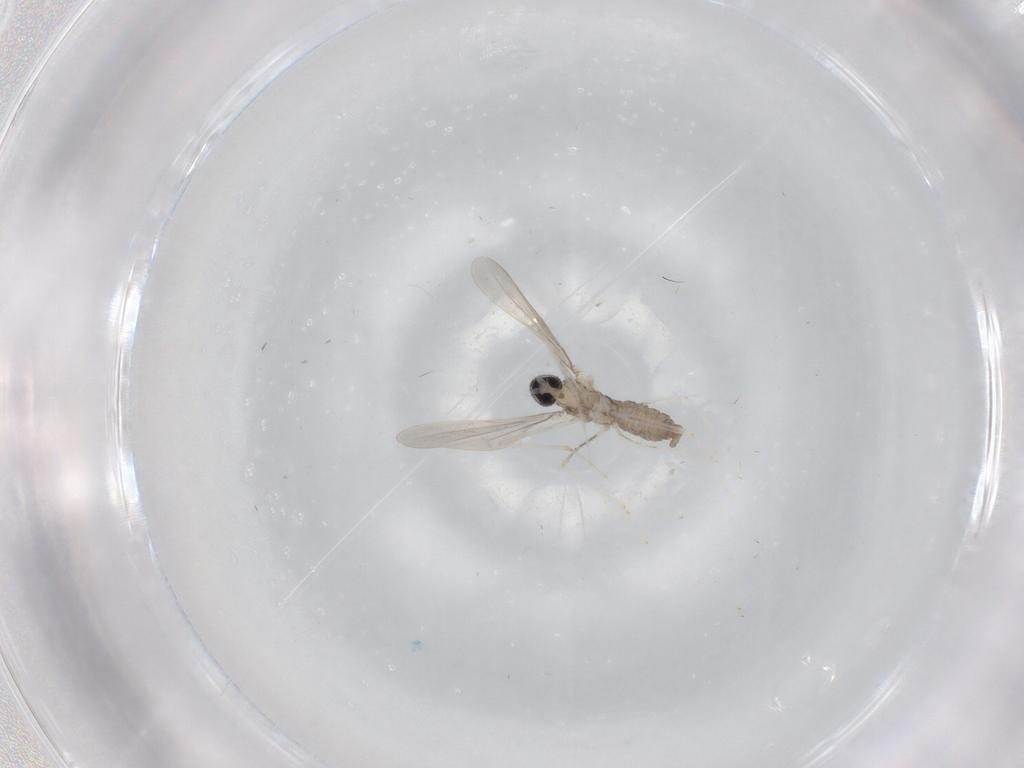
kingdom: Animalia
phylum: Arthropoda
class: Insecta
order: Diptera
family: Cecidomyiidae
